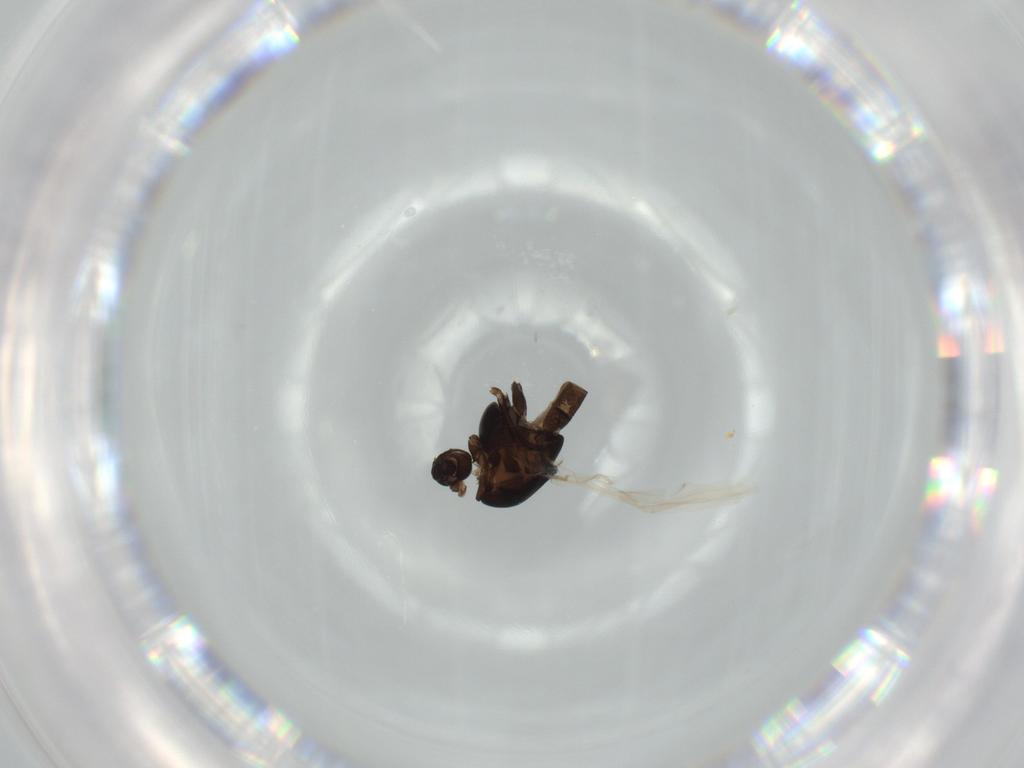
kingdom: Animalia
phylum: Arthropoda
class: Insecta
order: Diptera
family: Chironomidae
